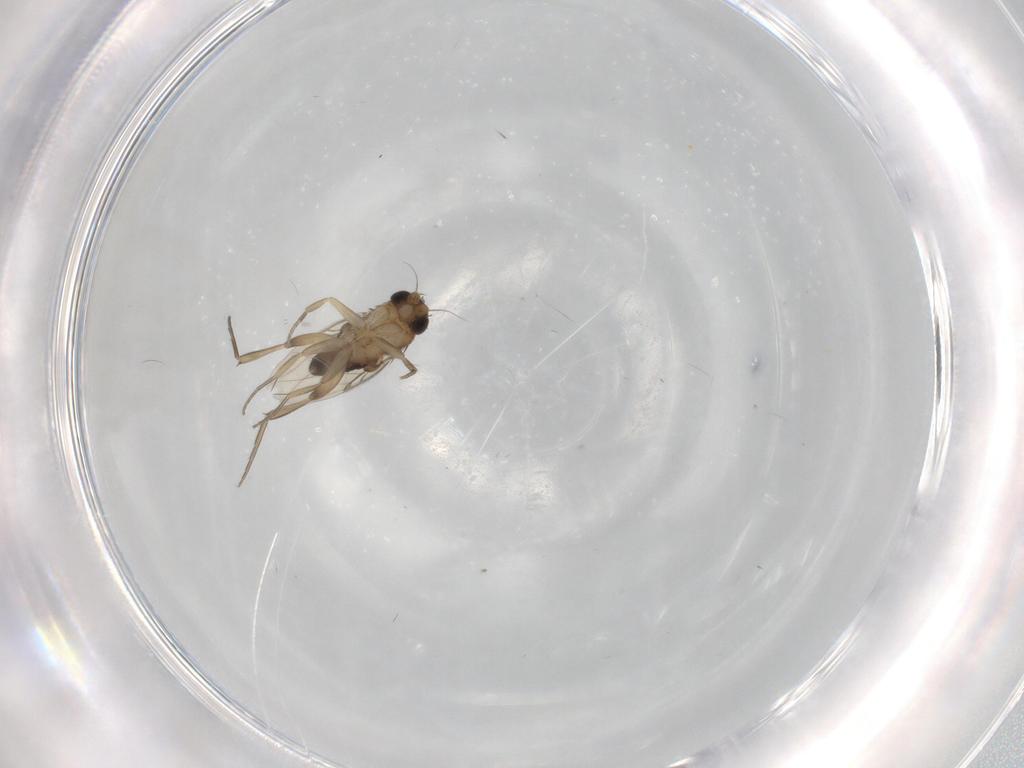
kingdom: Animalia
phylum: Arthropoda
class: Insecta
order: Diptera
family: Phoridae
